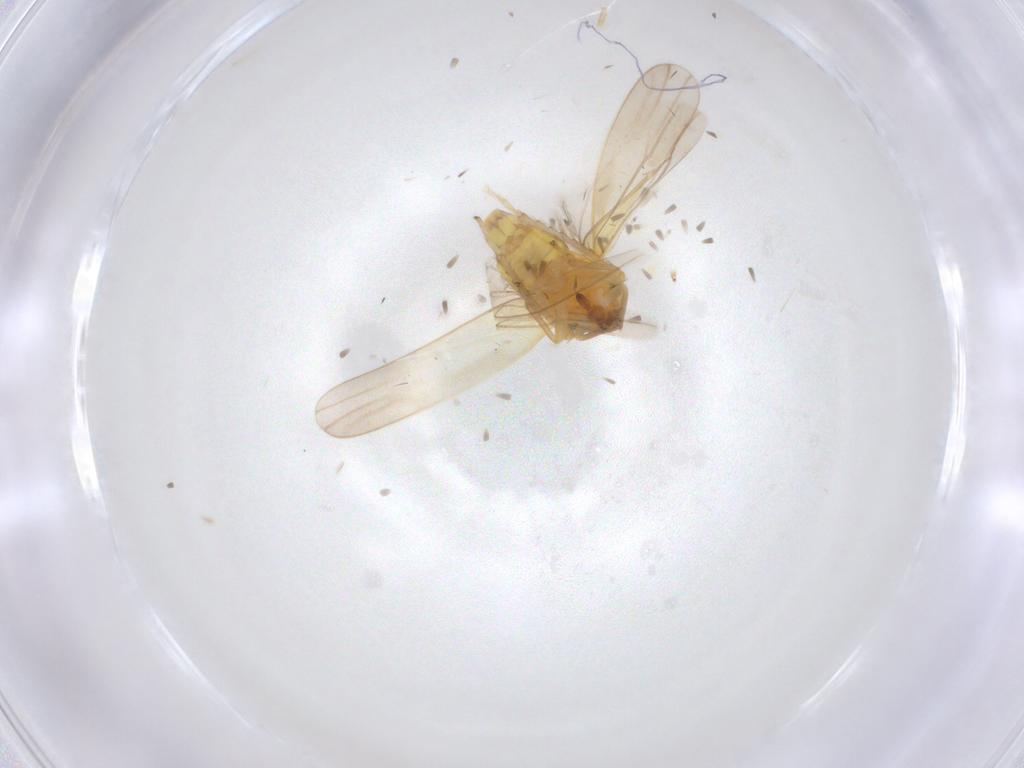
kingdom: Animalia
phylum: Arthropoda
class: Insecta
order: Hemiptera
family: Cicadellidae
